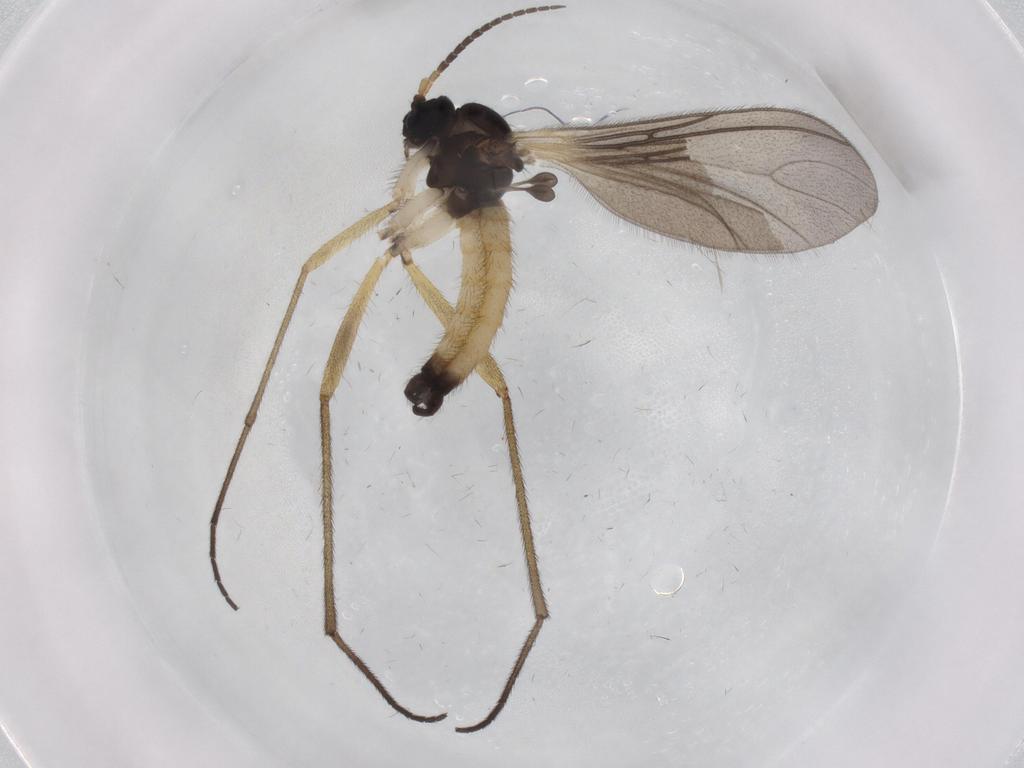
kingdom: Animalia
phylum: Arthropoda
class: Insecta
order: Diptera
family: Sciaridae
